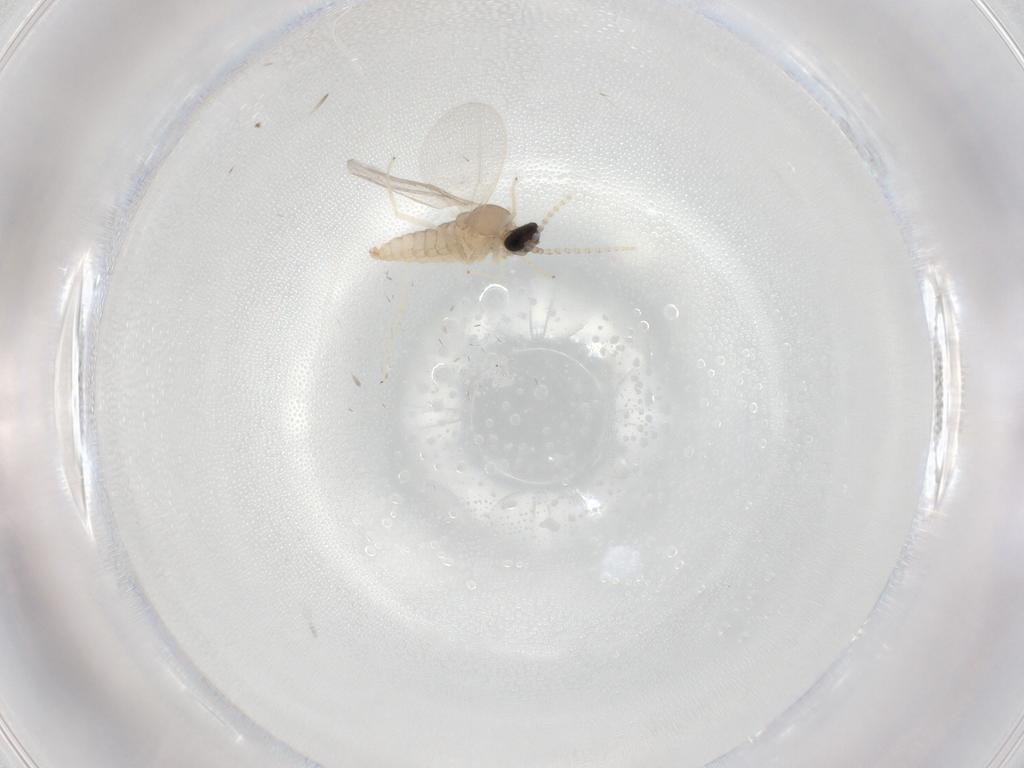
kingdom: Animalia
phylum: Arthropoda
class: Insecta
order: Diptera
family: Cecidomyiidae
